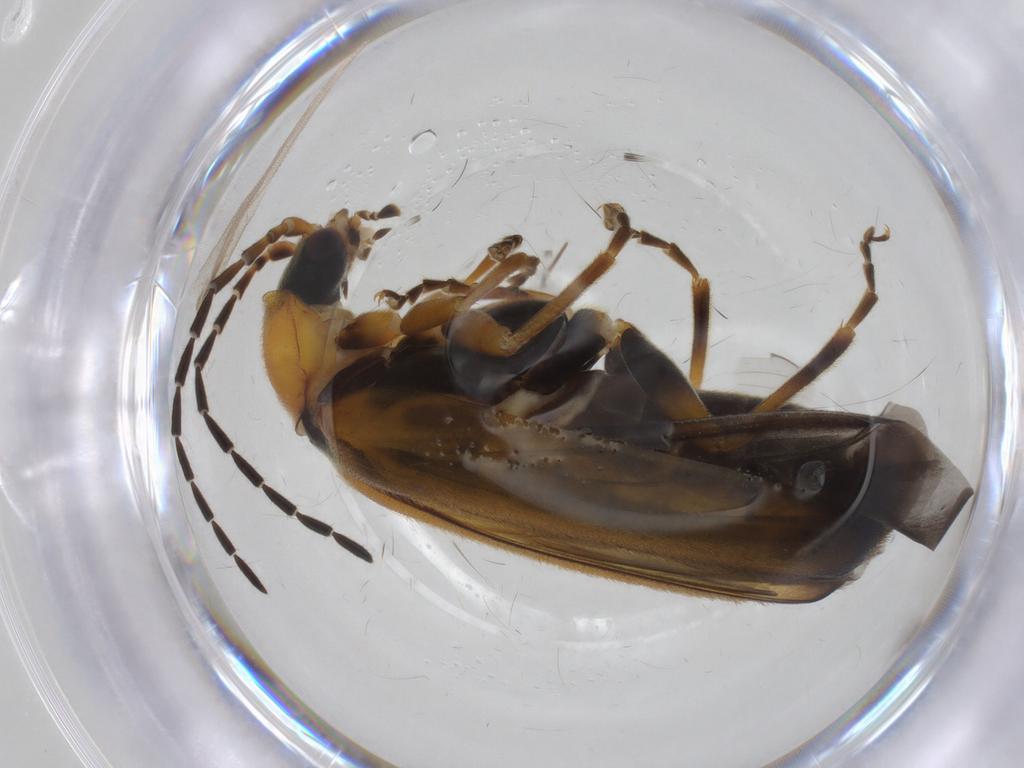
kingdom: Animalia
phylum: Arthropoda
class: Insecta
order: Coleoptera
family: Cantharidae
